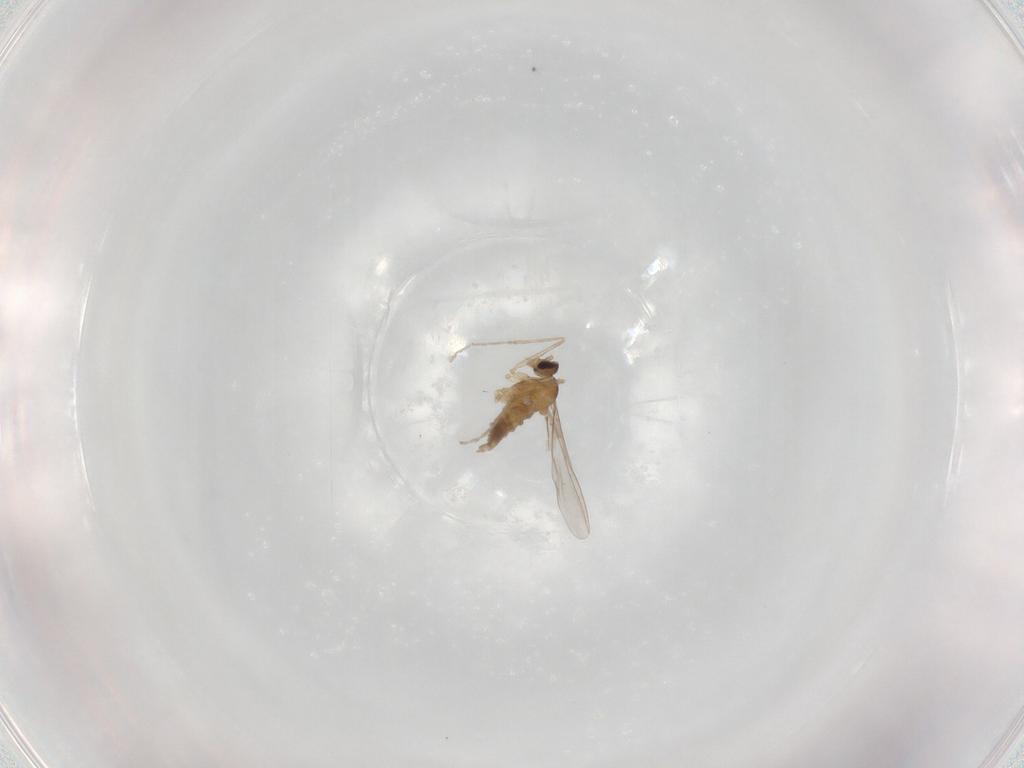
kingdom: Animalia
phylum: Arthropoda
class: Insecta
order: Diptera
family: Cecidomyiidae
